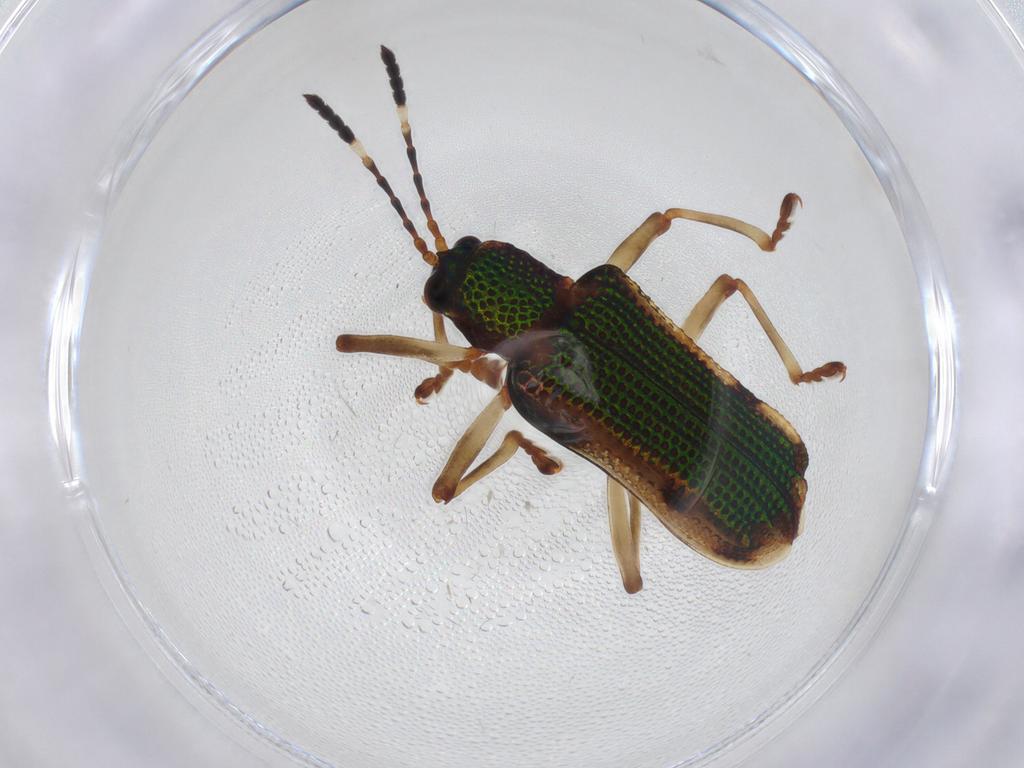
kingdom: Animalia
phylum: Arthropoda
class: Insecta
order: Coleoptera
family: Chrysomelidae
